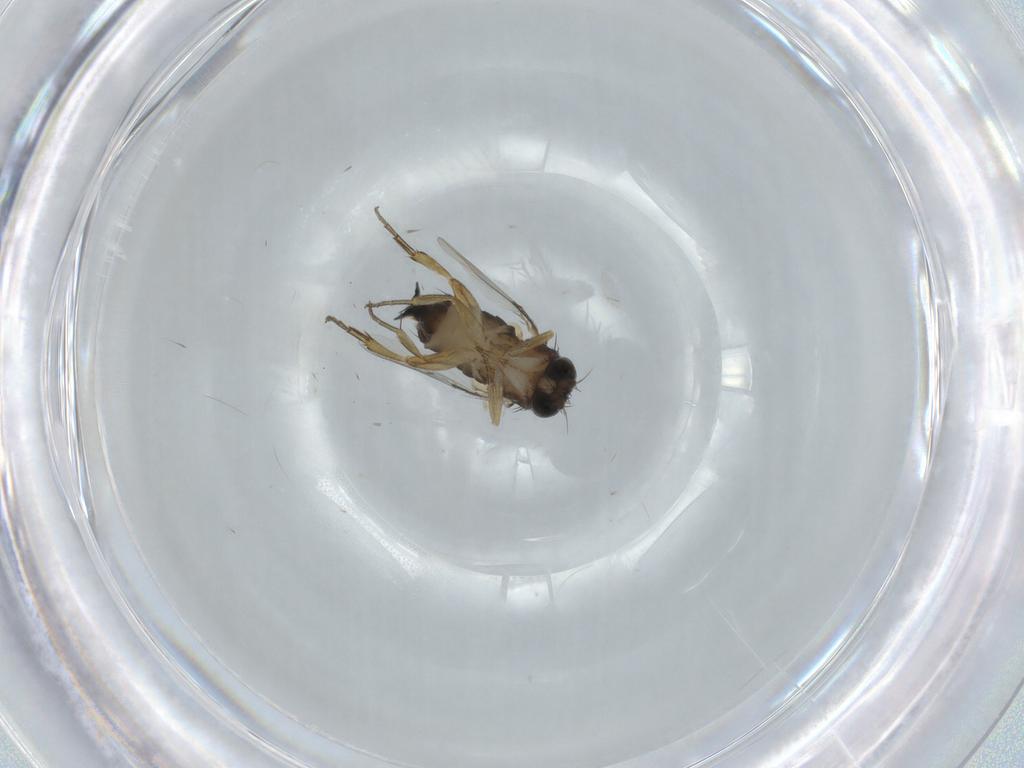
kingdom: Animalia
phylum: Arthropoda
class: Insecta
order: Diptera
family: Phoridae
